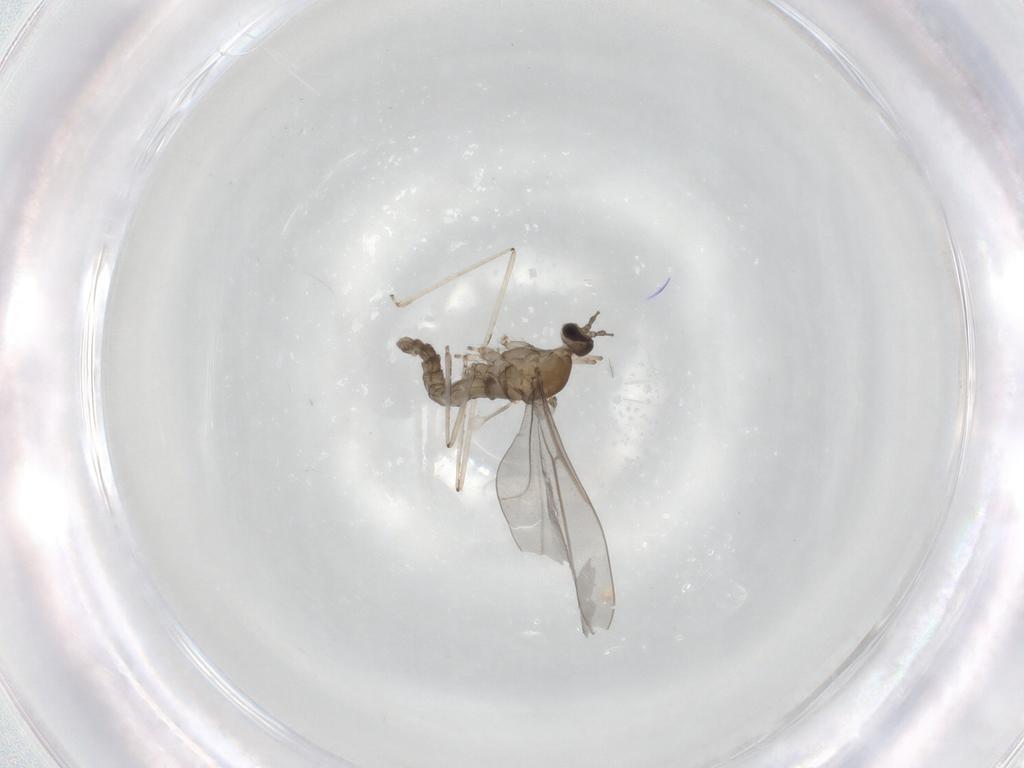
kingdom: Animalia
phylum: Arthropoda
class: Insecta
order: Diptera
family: Cecidomyiidae
